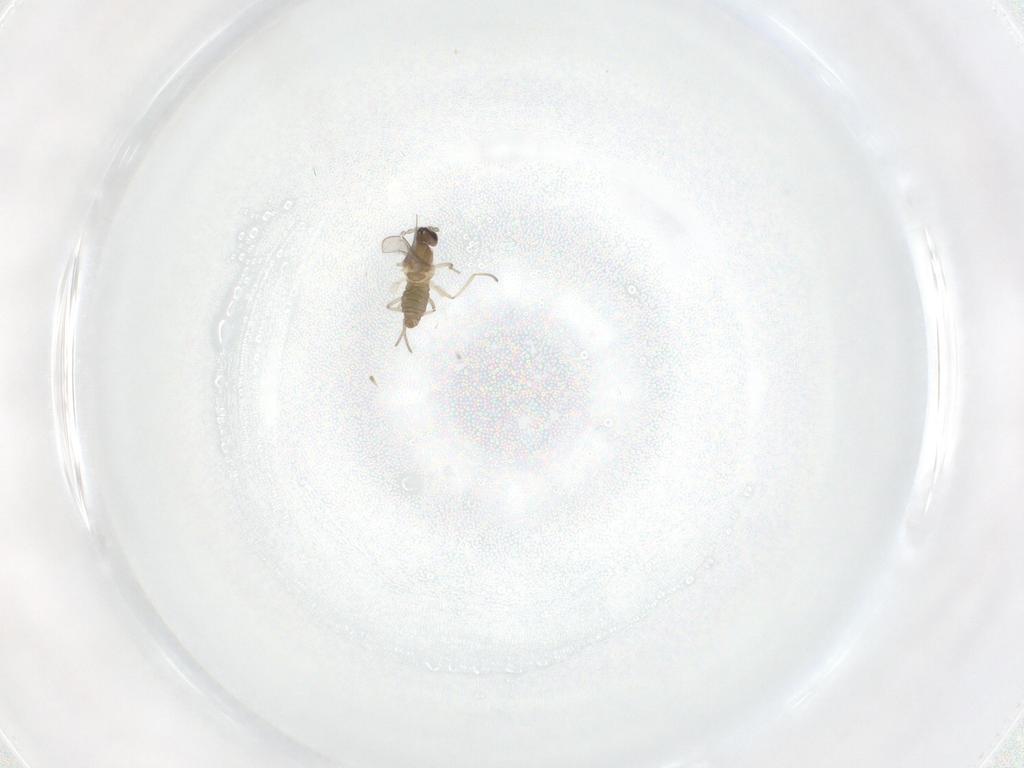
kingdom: Animalia
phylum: Arthropoda
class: Insecta
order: Diptera
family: Cecidomyiidae
